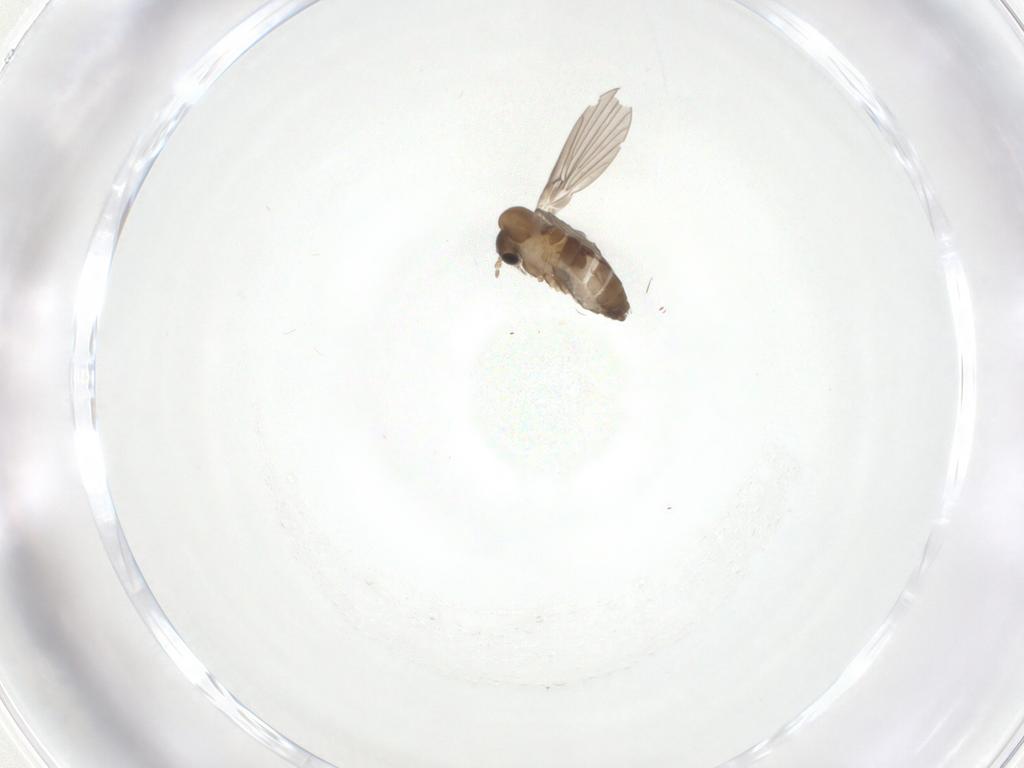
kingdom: Animalia
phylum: Arthropoda
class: Insecta
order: Diptera
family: Psychodidae
